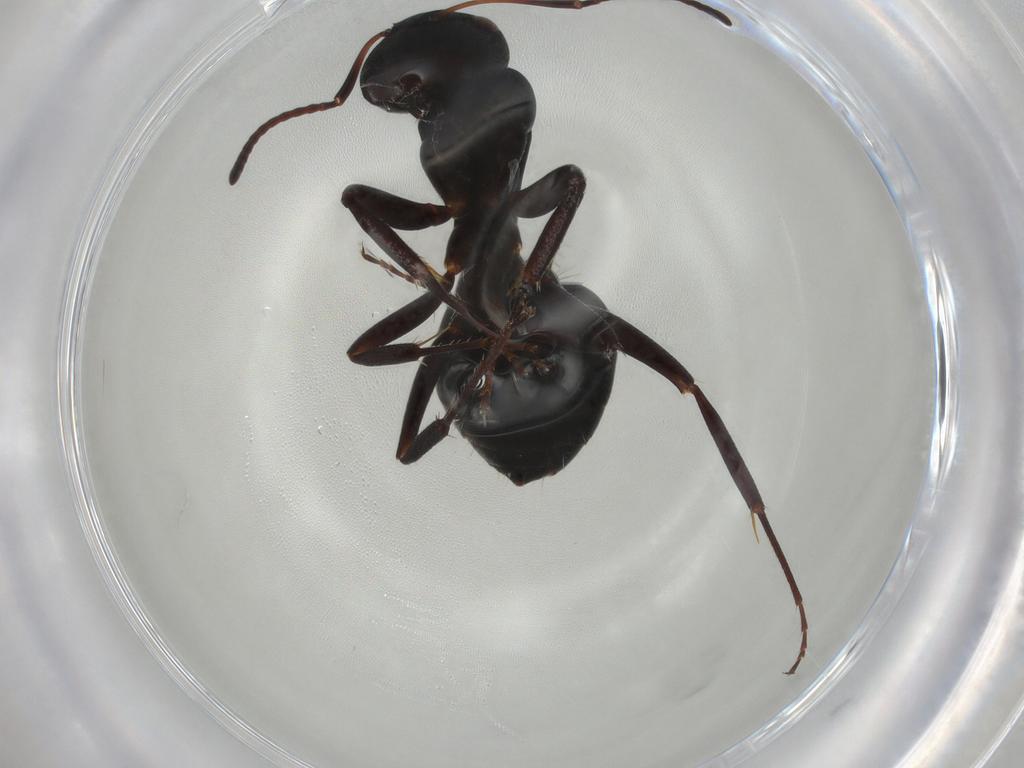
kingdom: Animalia
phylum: Arthropoda
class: Insecta
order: Hymenoptera
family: Formicidae
